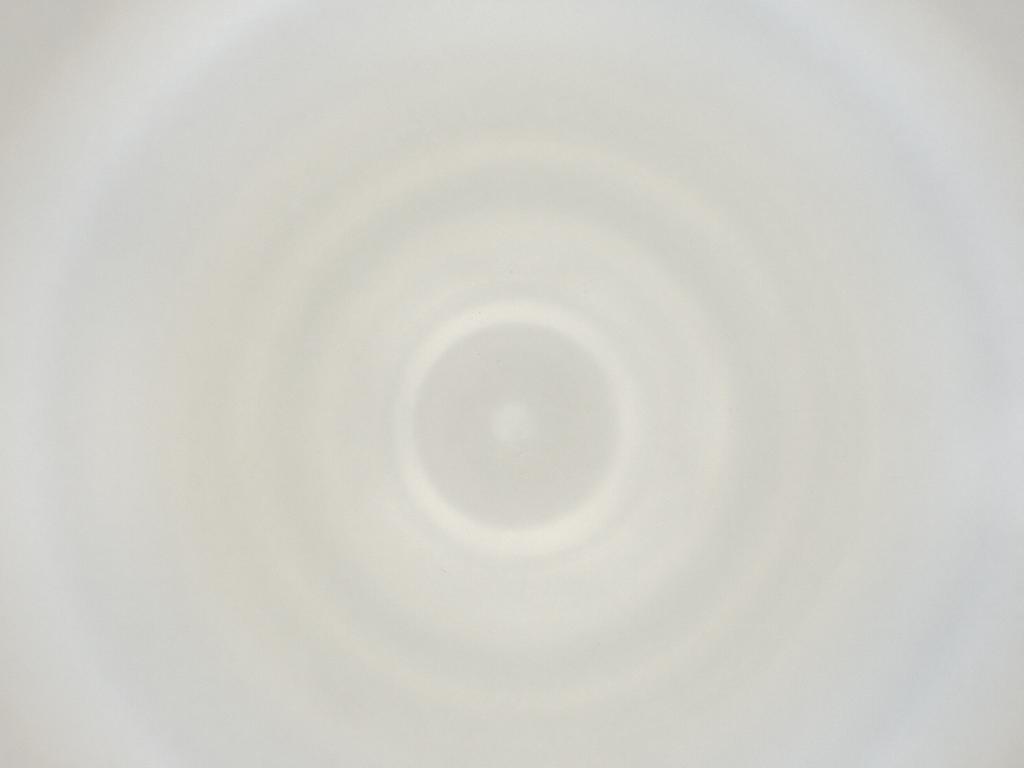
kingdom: Animalia
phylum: Arthropoda
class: Insecta
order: Diptera
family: Cecidomyiidae
